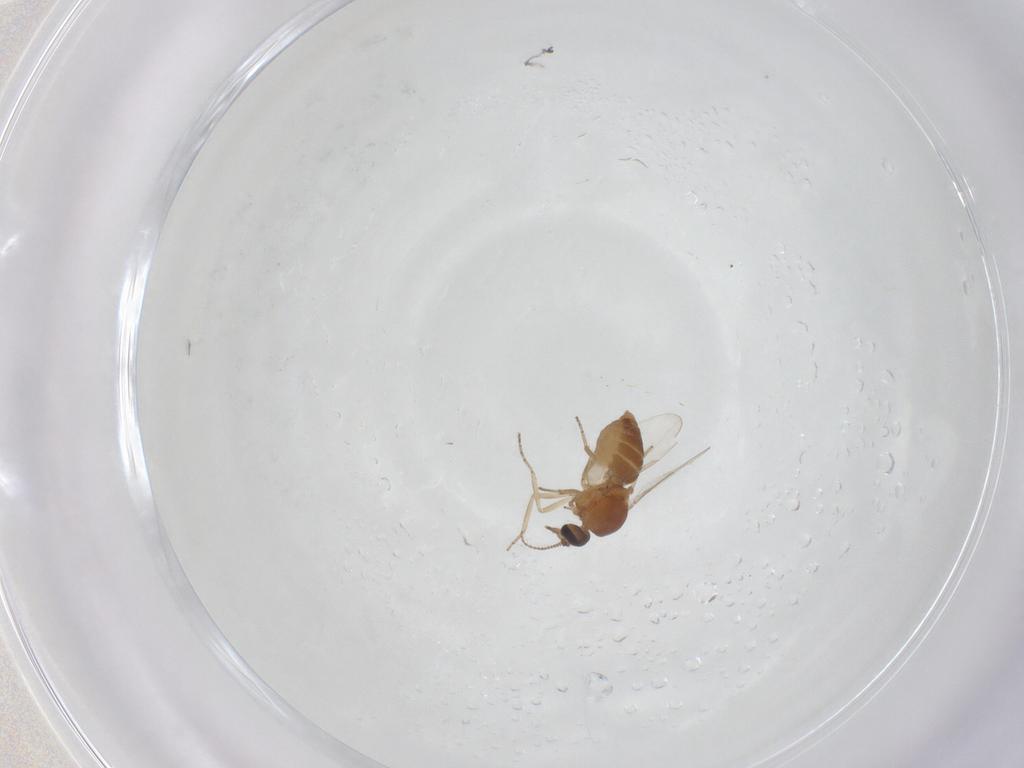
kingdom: Animalia
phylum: Arthropoda
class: Insecta
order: Diptera
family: Ceratopogonidae
